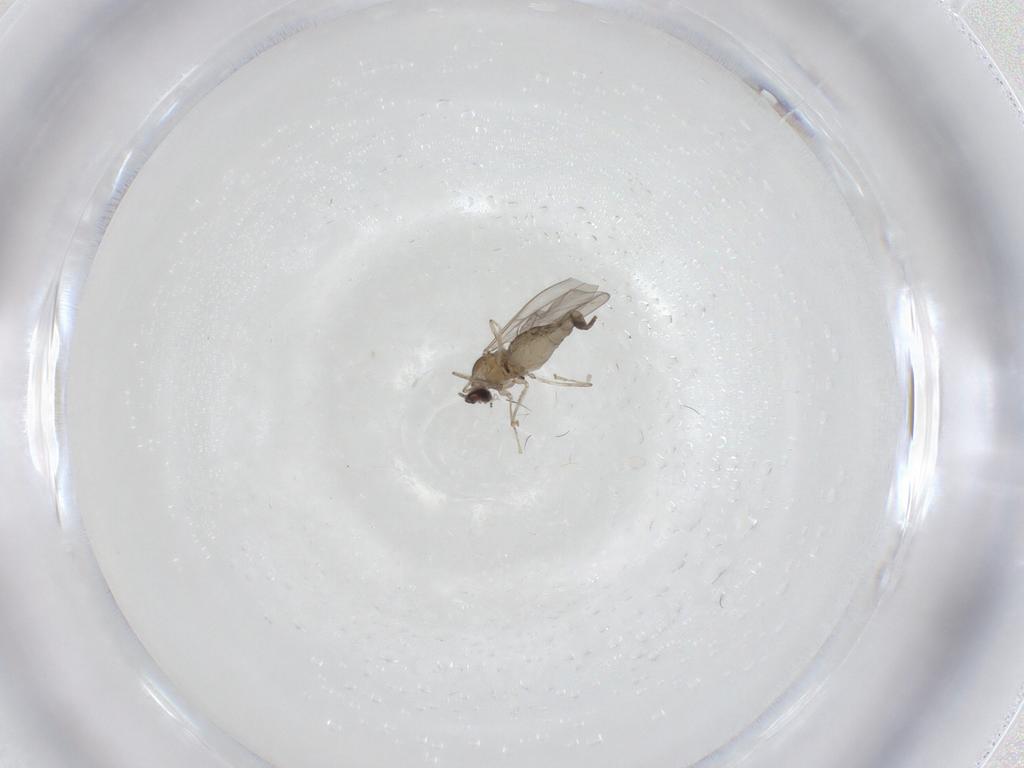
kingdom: Animalia
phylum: Arthropoda
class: Insecta
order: Diptera
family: Cecidomyiidae
